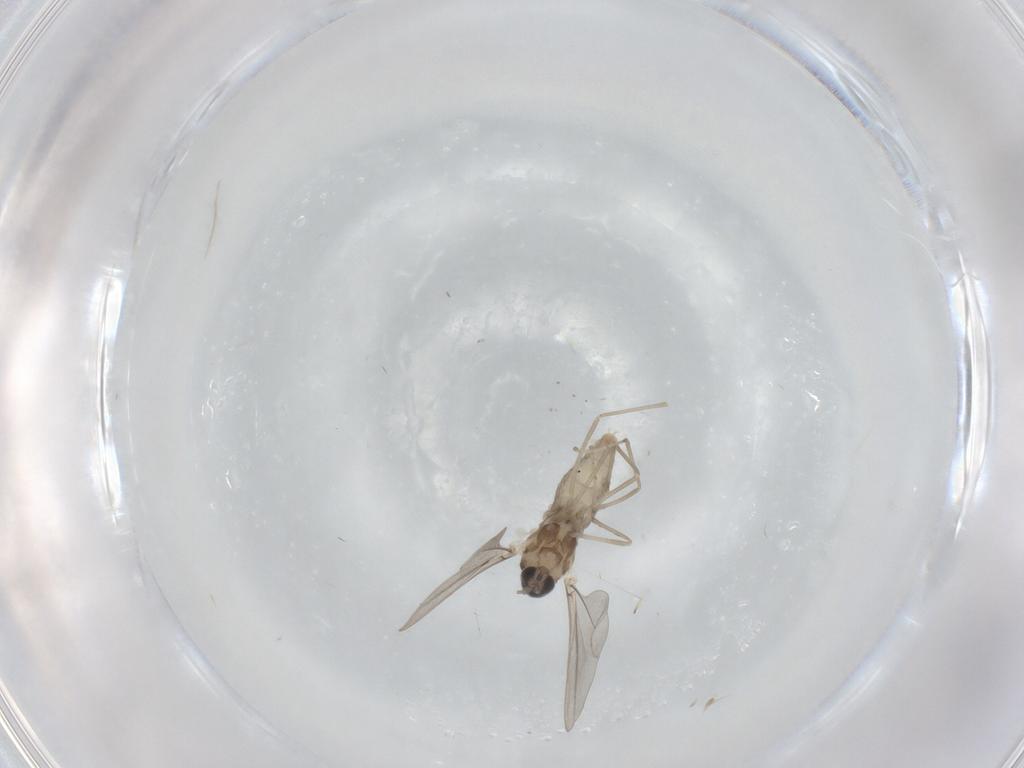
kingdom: Animalia
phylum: Arthropoda
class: Insecta
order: Diptera
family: Cecidomyiidae
